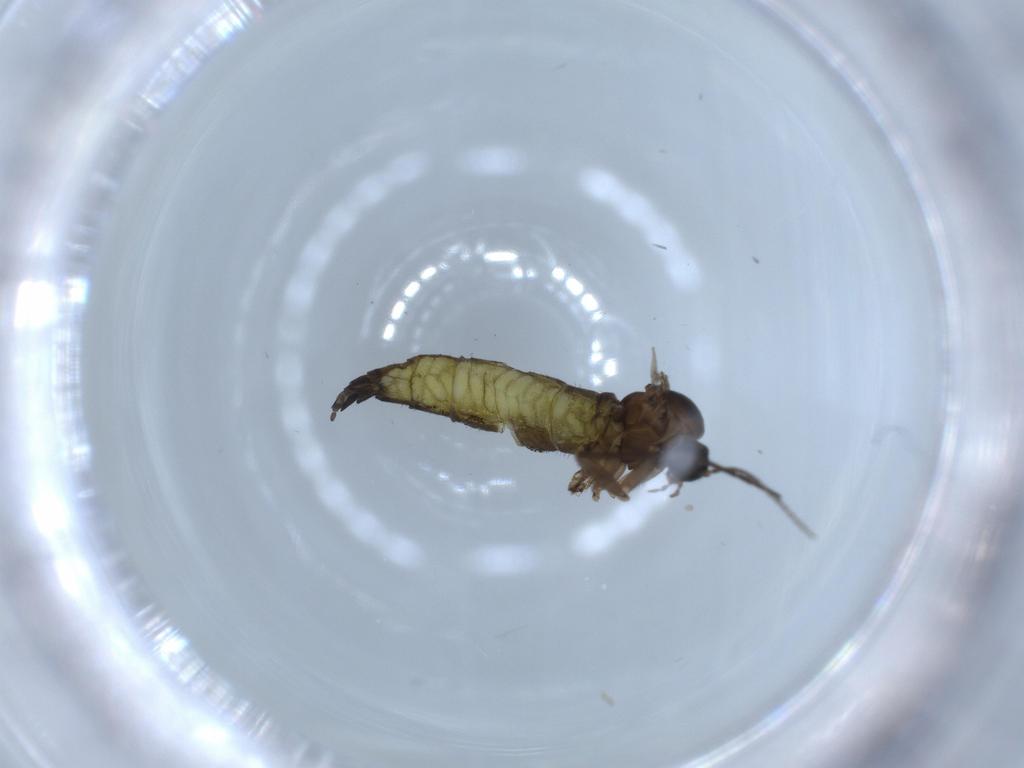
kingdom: Animalia
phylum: Arthropoda
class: Insecta
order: Diptera
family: Sciaridae
